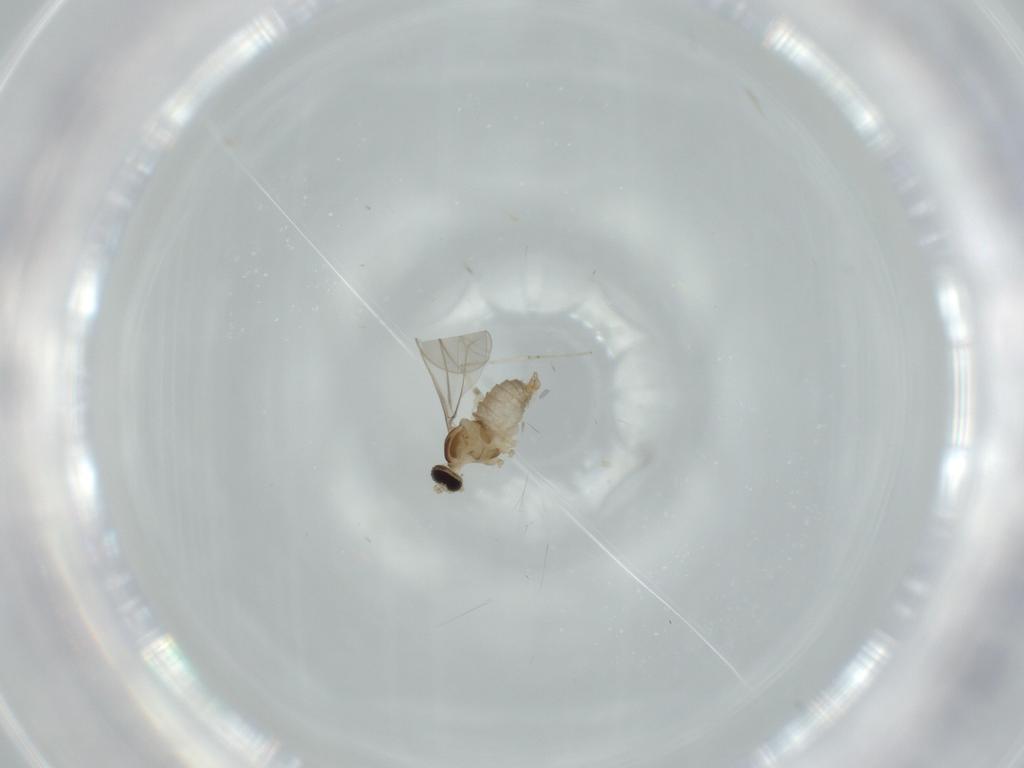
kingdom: Animalia
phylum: Arthropoda
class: Insecta
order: Diptera
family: Cecidomyiidae
